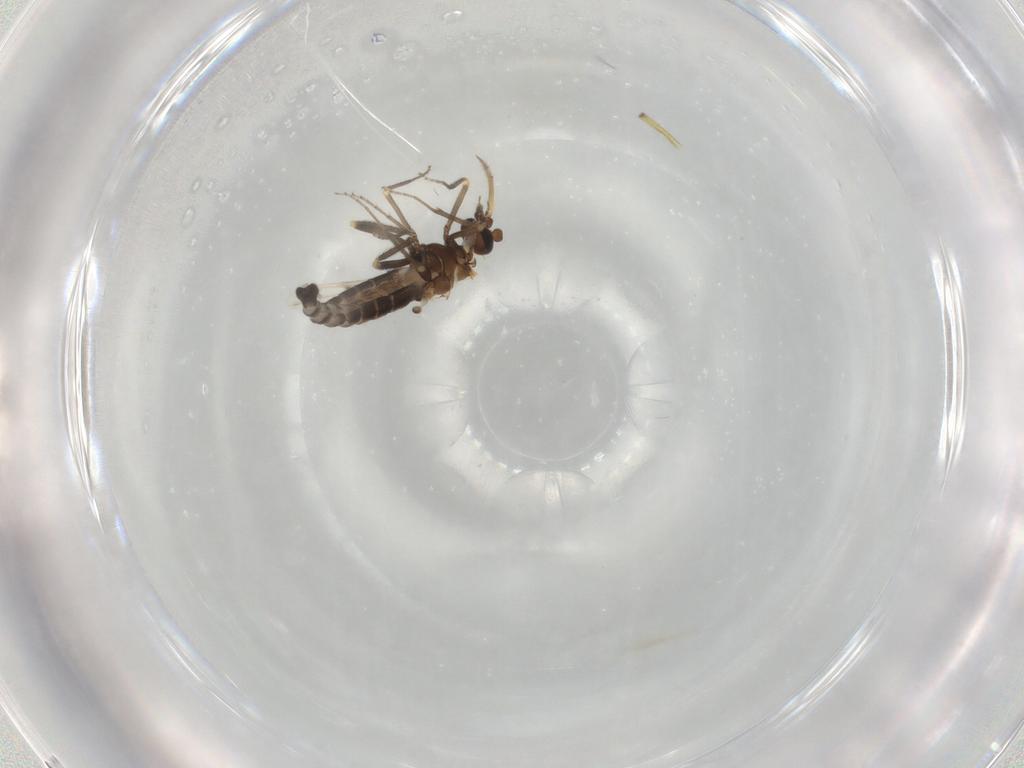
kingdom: Animalia
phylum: Arthropoda
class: Insecta
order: Diptera
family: Ceratopogonidae
